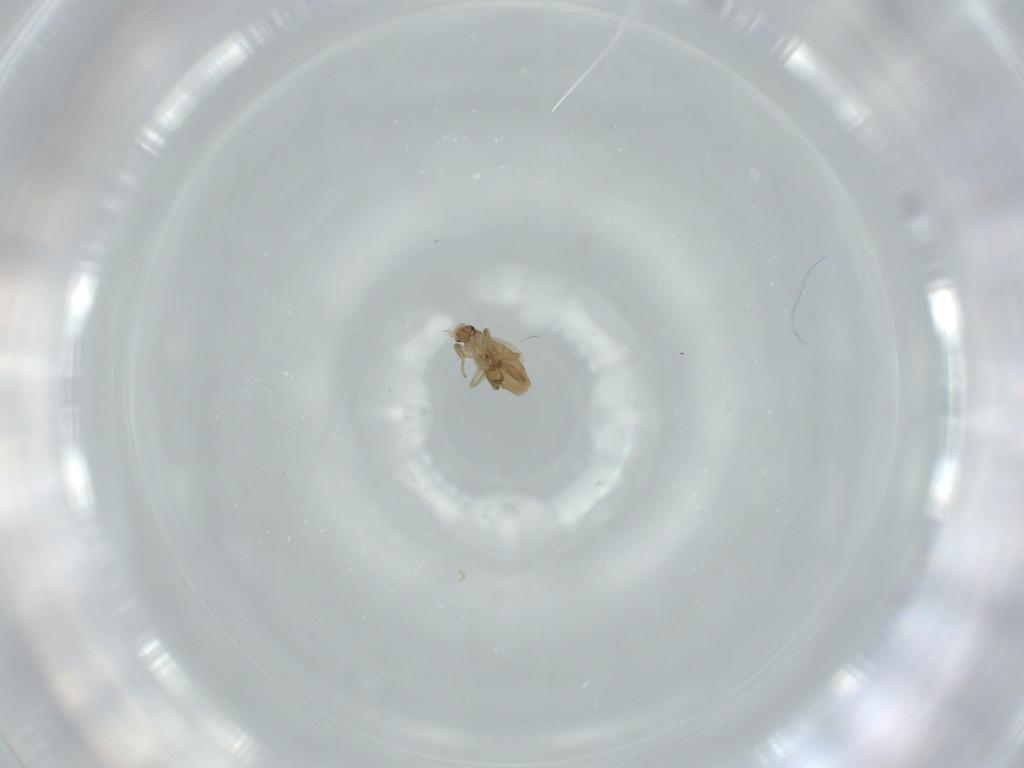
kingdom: Animalia
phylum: Arthropoda
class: Insecta
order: Diptera
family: Phoridae
